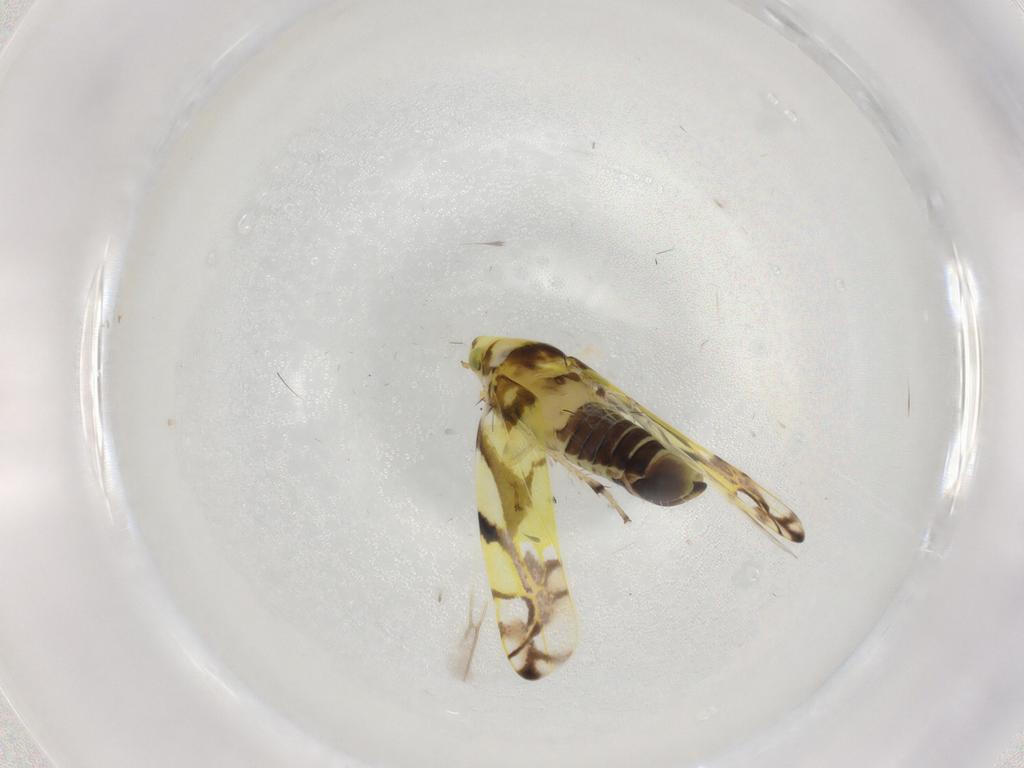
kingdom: Animalia
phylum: Arthropoda
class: Insecta
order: Hemiptera
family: Cicadellidae
